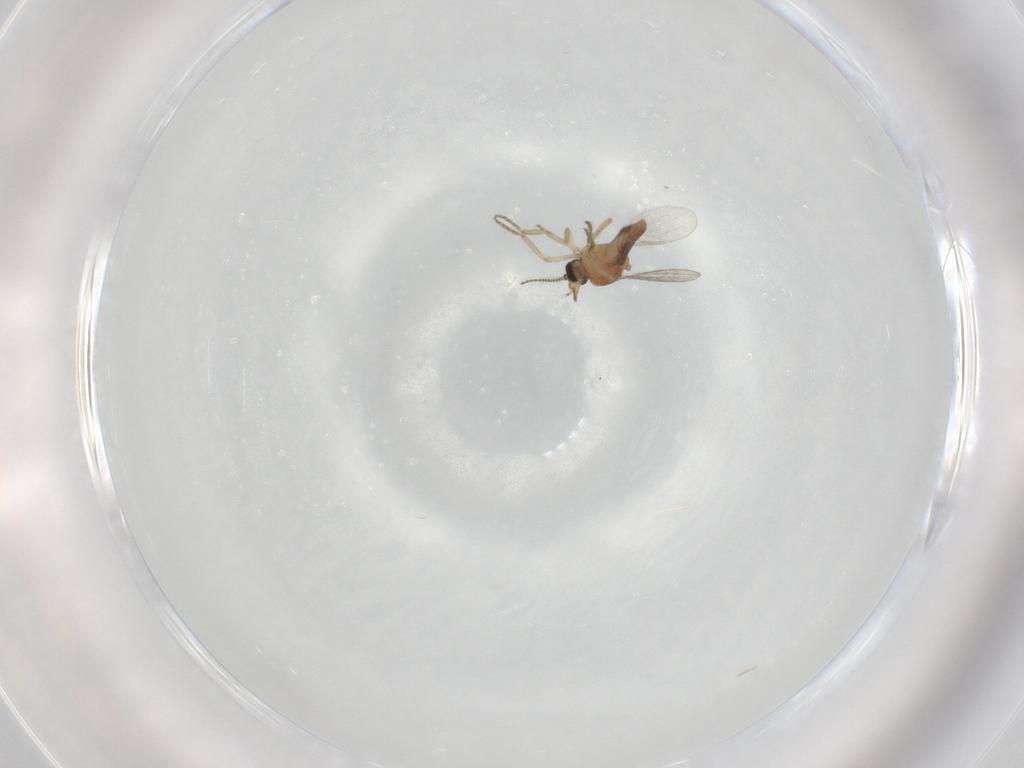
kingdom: Animalia
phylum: Arthropoda
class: Insecta
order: Diptera
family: Ceratopogonidae
